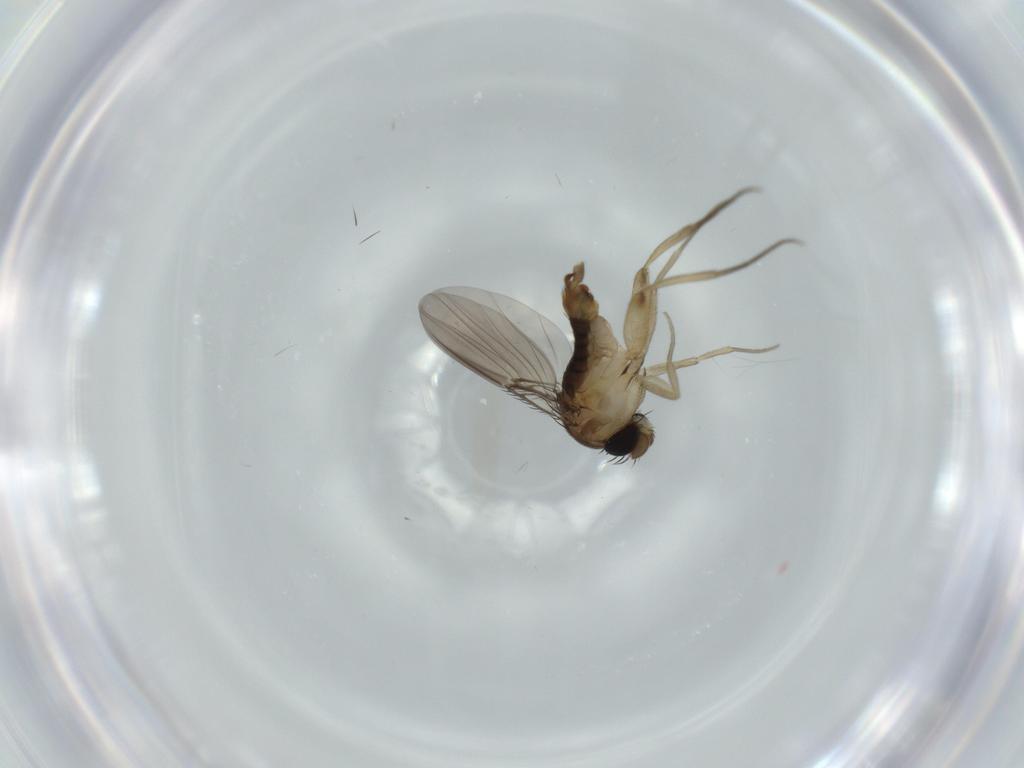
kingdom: Animalia
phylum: Arthropoda
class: Insecta
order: Diptera
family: Phoridae
